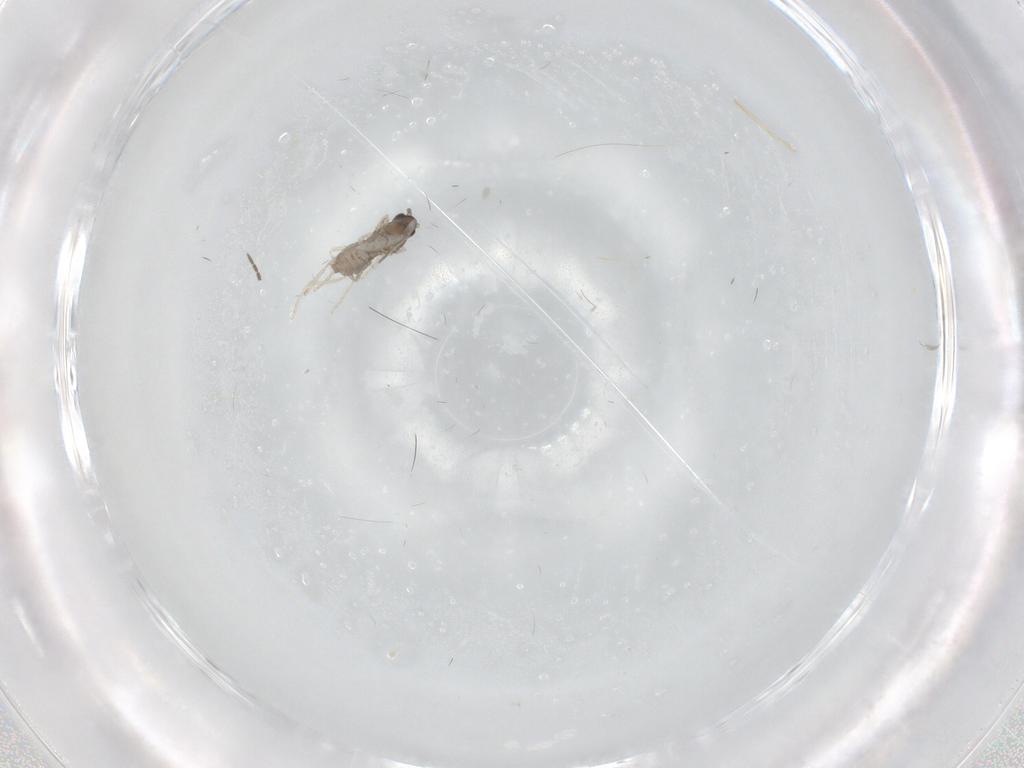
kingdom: Animalia
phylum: Arthropoda
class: Insecta
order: Diptera
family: Cecidomyiidae
